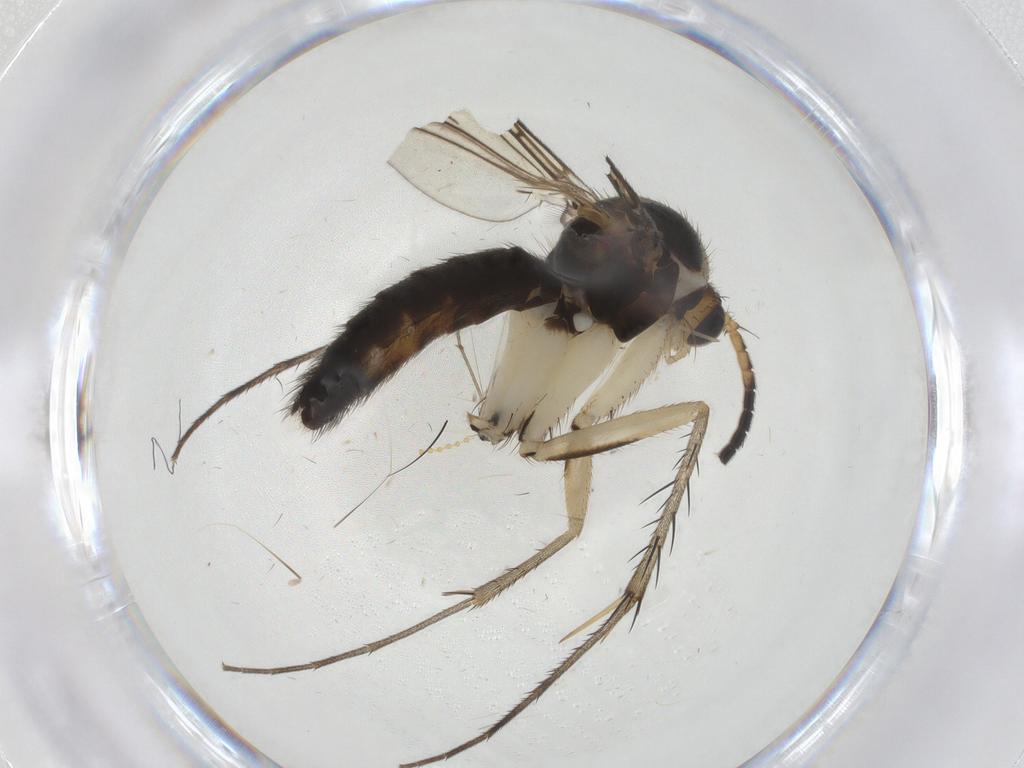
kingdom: Animalia
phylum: Arthropoda
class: Insecta
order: Diptera
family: Mycetophilidae
